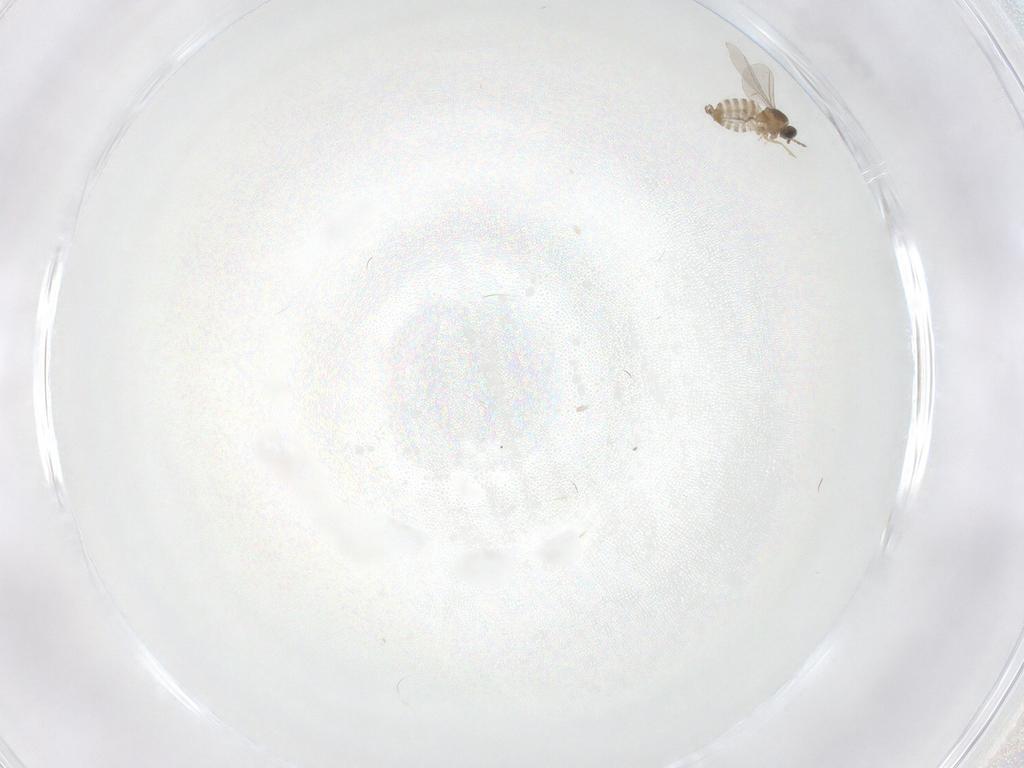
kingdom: Animalia
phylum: Arthropoda
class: Insecta
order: Diptera
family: Cecidomyiidae
